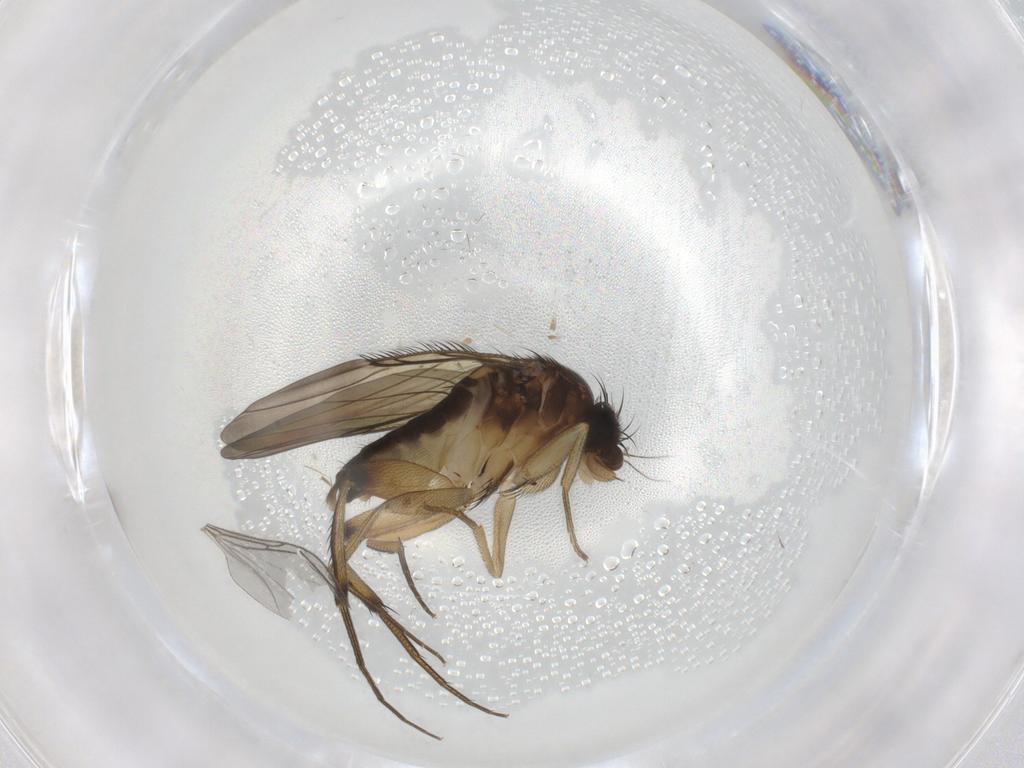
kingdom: Animalia
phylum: Arthropoda
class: Insecta
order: Diptera
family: Phoridae
